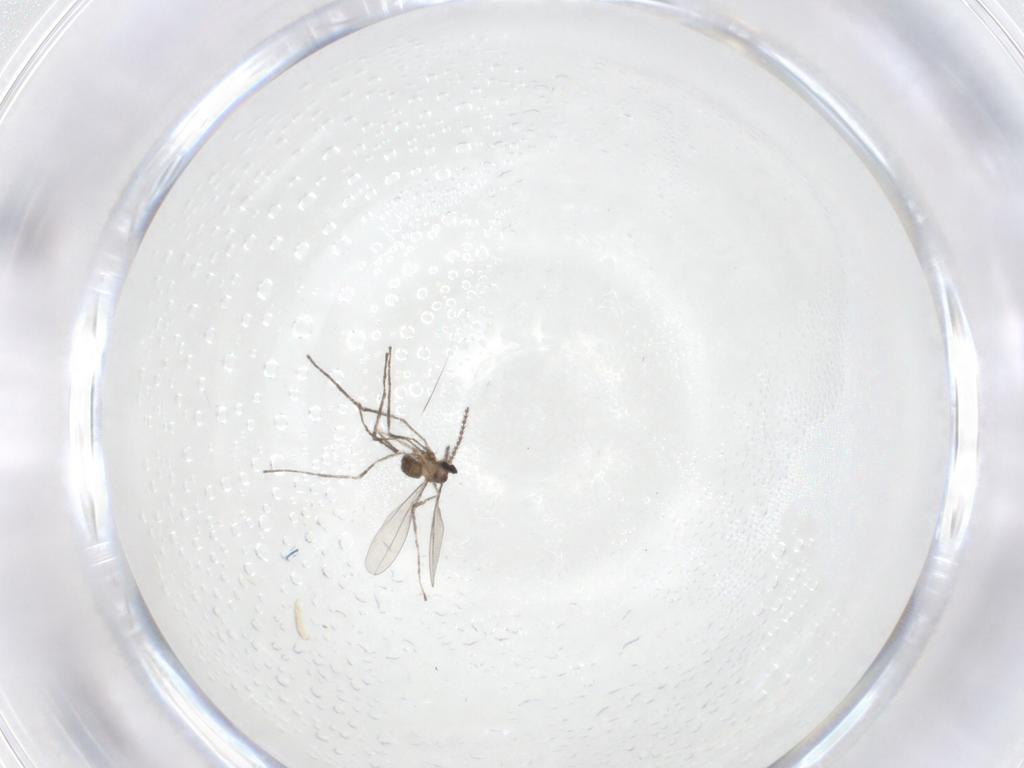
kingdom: Animalia
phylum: Arthropoda
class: Insecta
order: Diptera
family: Cecidomyiidae
